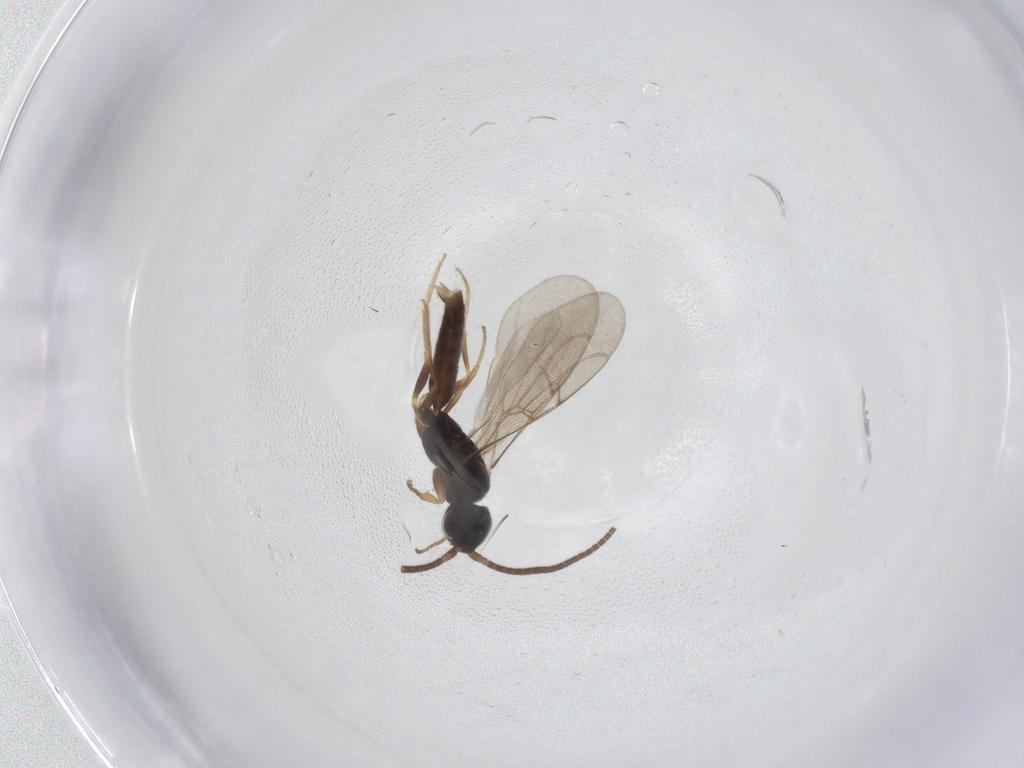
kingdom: Animalia
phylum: Arthropoda
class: Insecta
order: Hymenoptera
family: Sclerogibbidae
